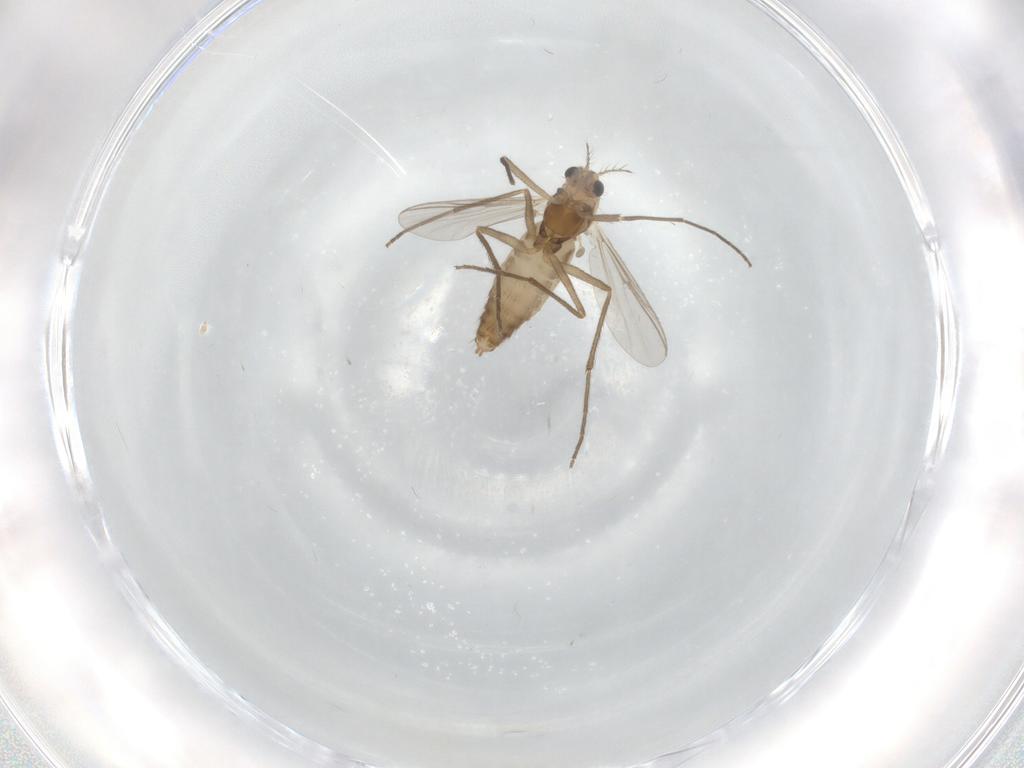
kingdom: Animalia
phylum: Arthropoda
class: Insecta
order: Diptera
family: Chironomidae
